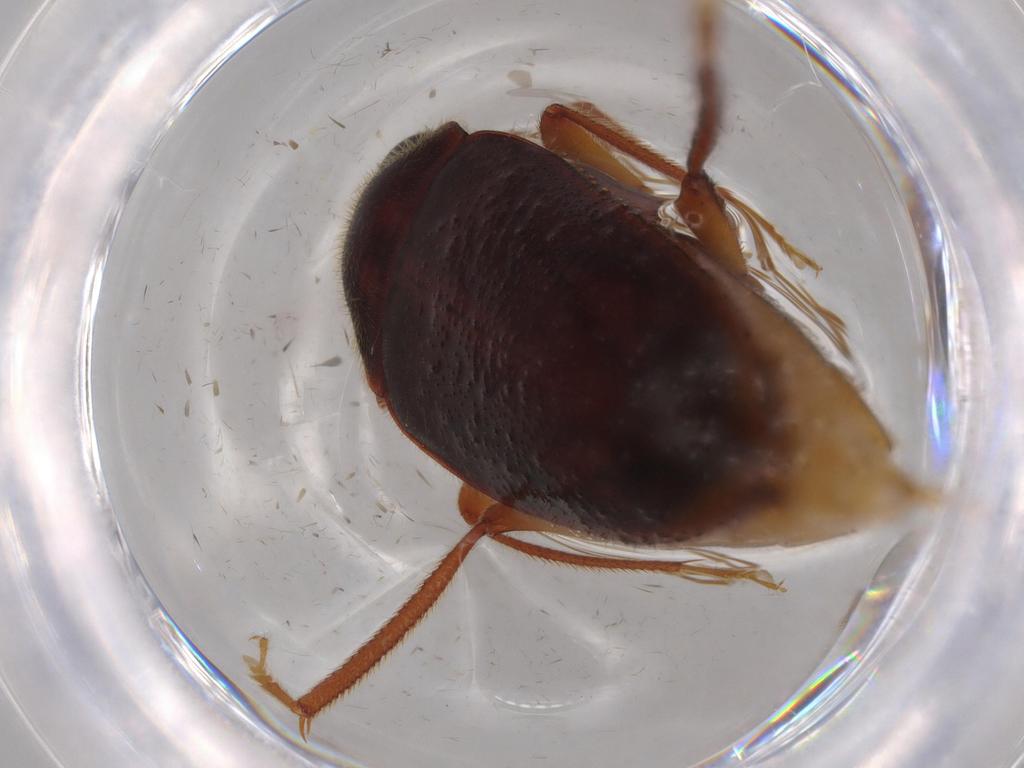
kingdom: Animalia
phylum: Arthropoda
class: Insecta
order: Coleoptera
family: Ptilodactylidae
